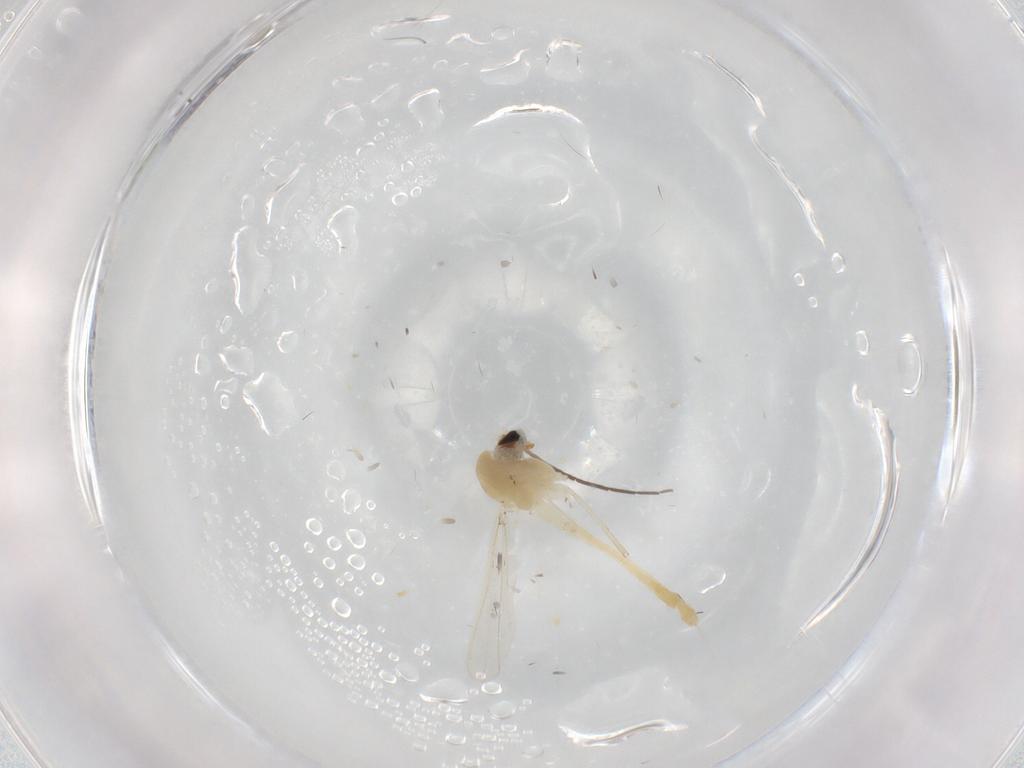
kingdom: Animalia
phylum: Arthropoda
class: Insecta
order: Diptera
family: Chironomidae
